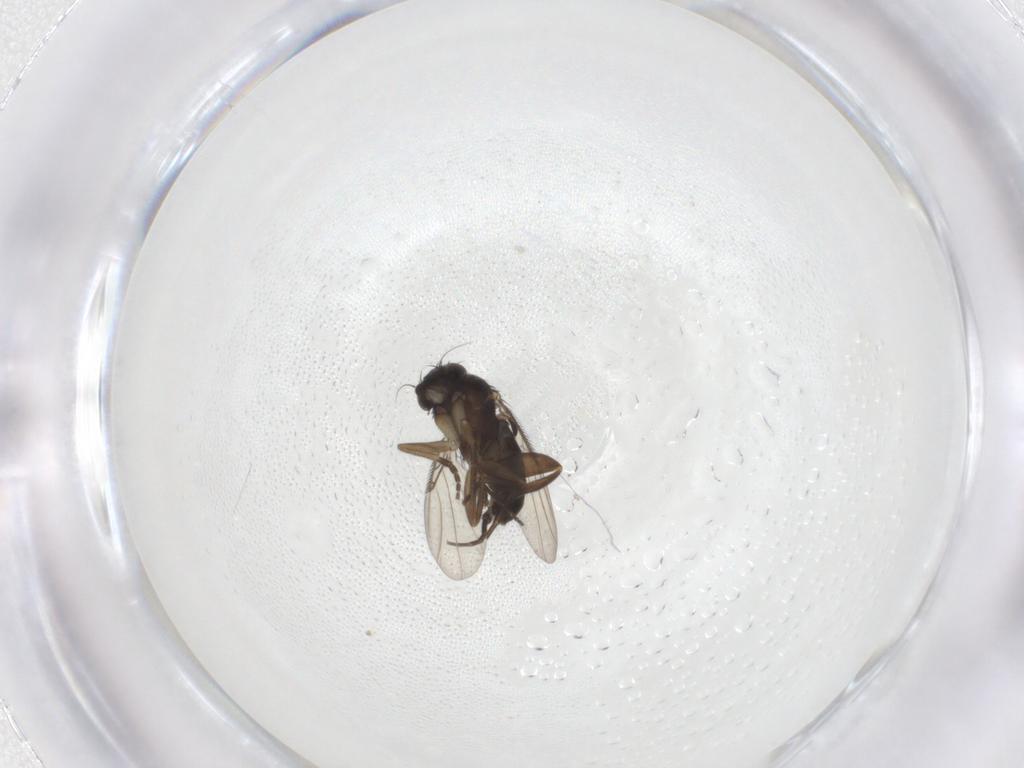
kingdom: Animalia
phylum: Arthropoda
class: Insecta
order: Diptera
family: Phoridae
